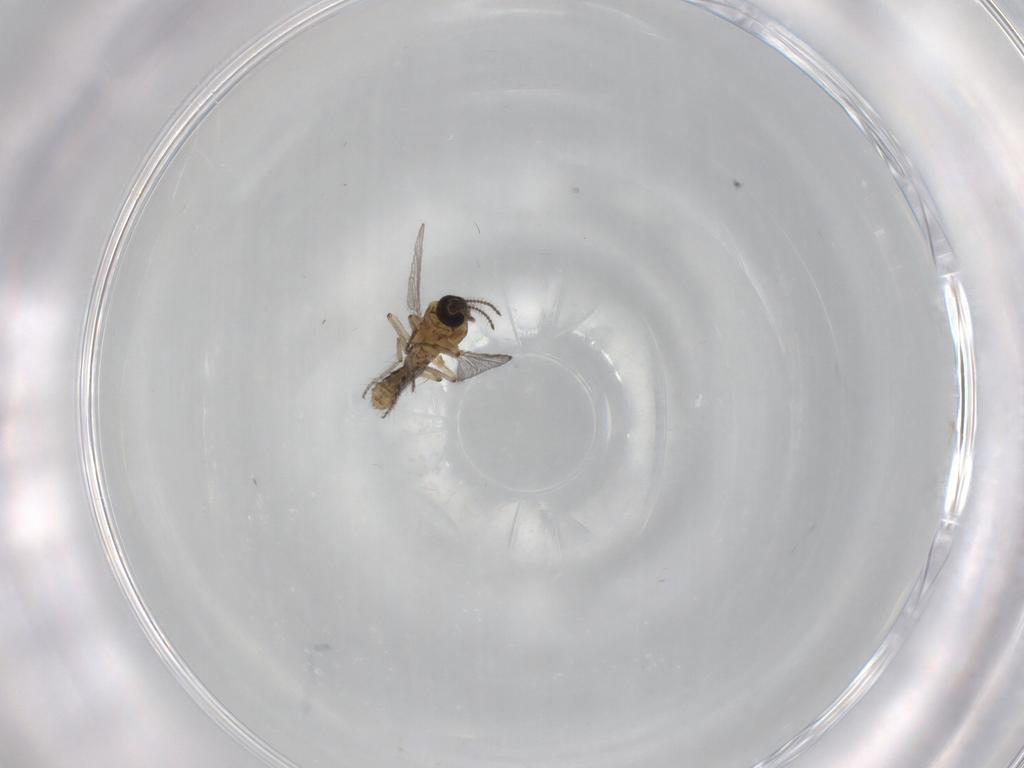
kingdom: Animalia
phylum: Arthropoda
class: Insecta
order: Diptera
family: Ceratopogonidae
